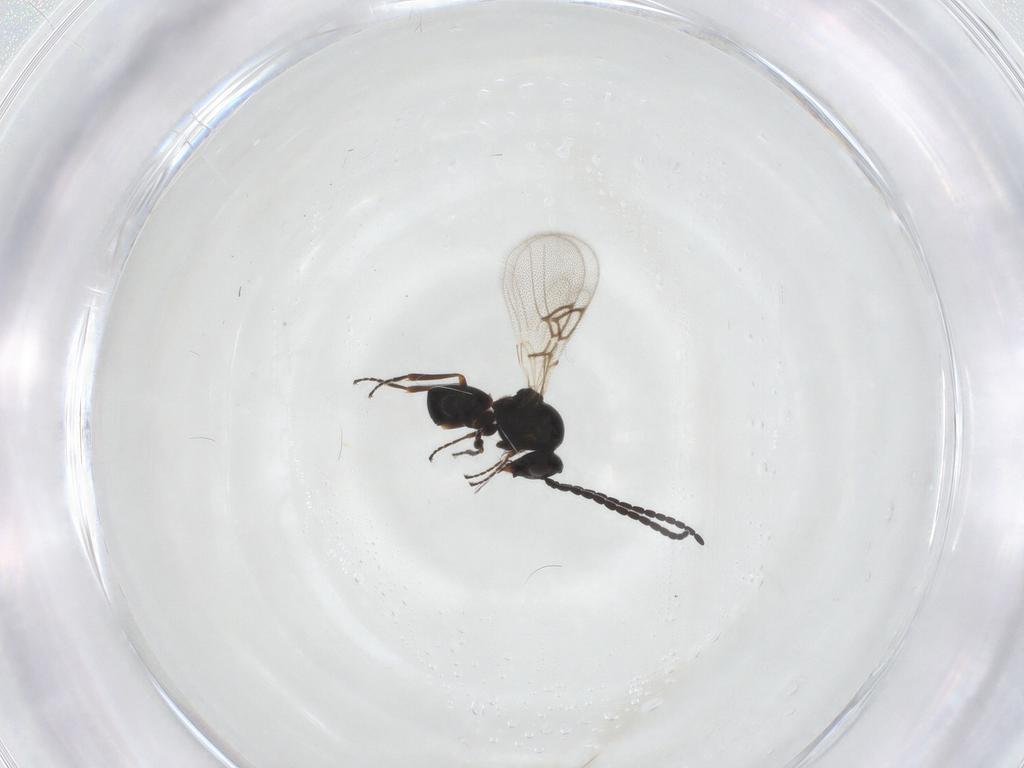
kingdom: Animalia
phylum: Arthropoda
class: Insecta
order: Hymenoptera
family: Figitidae
